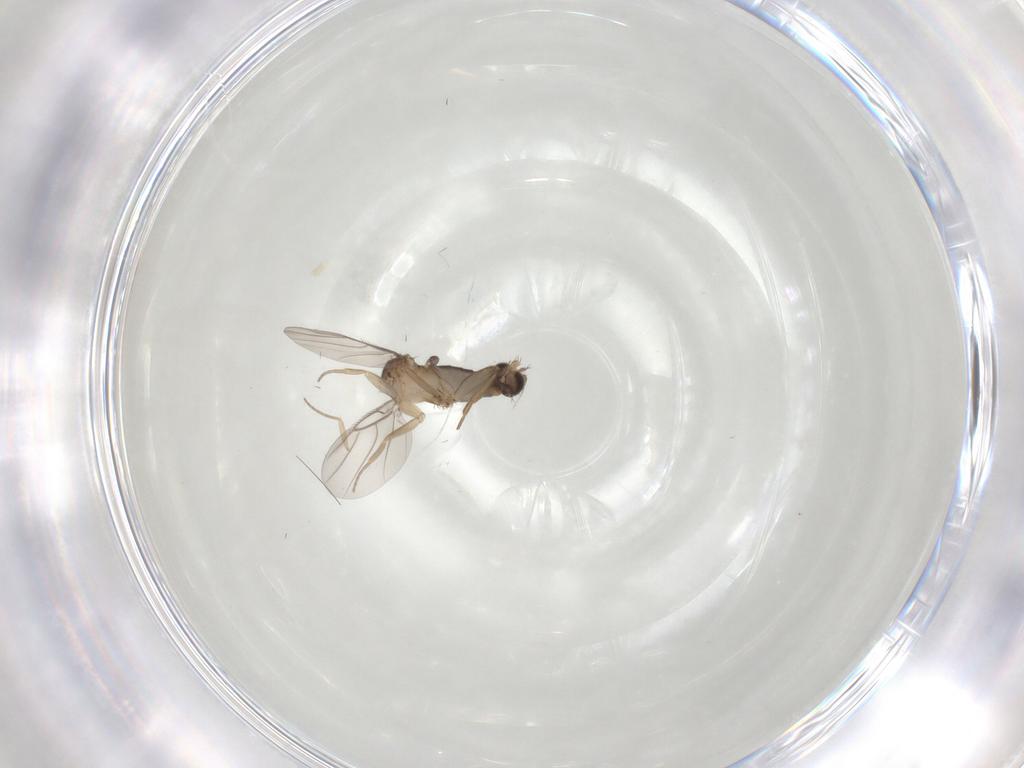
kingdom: Animalia
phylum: Arthropoda
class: Insecta
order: Diptera
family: Phoridae
